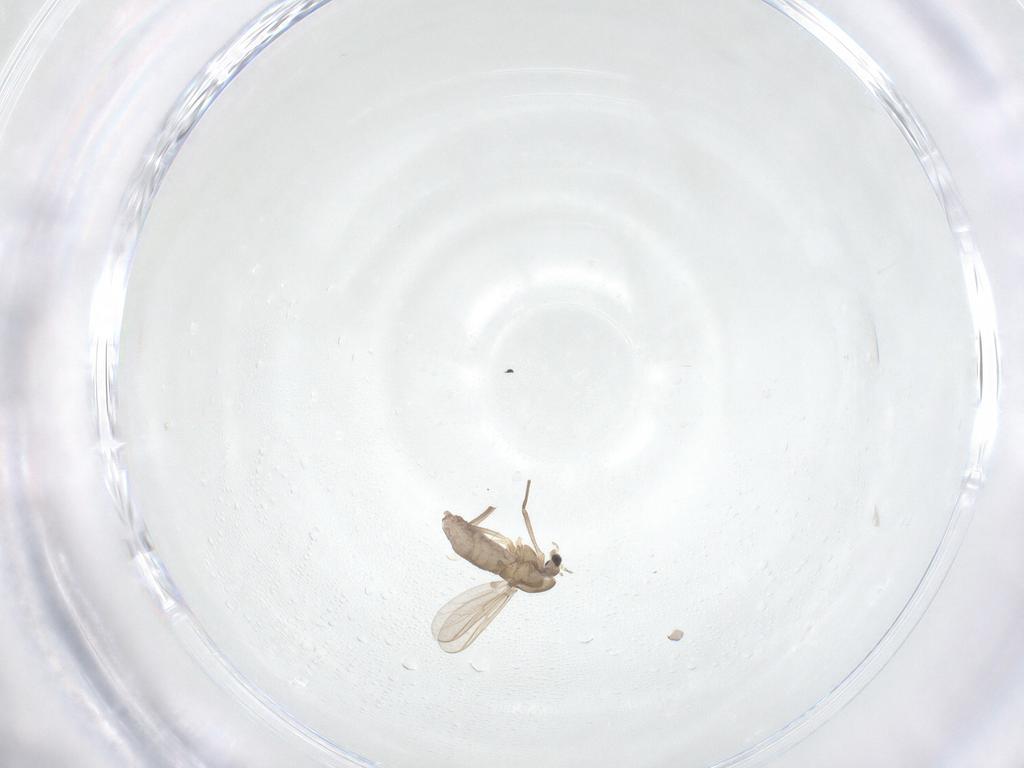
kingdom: Animalia
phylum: Arthropoda
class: Insecta
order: Diptera
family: Chironomidae
